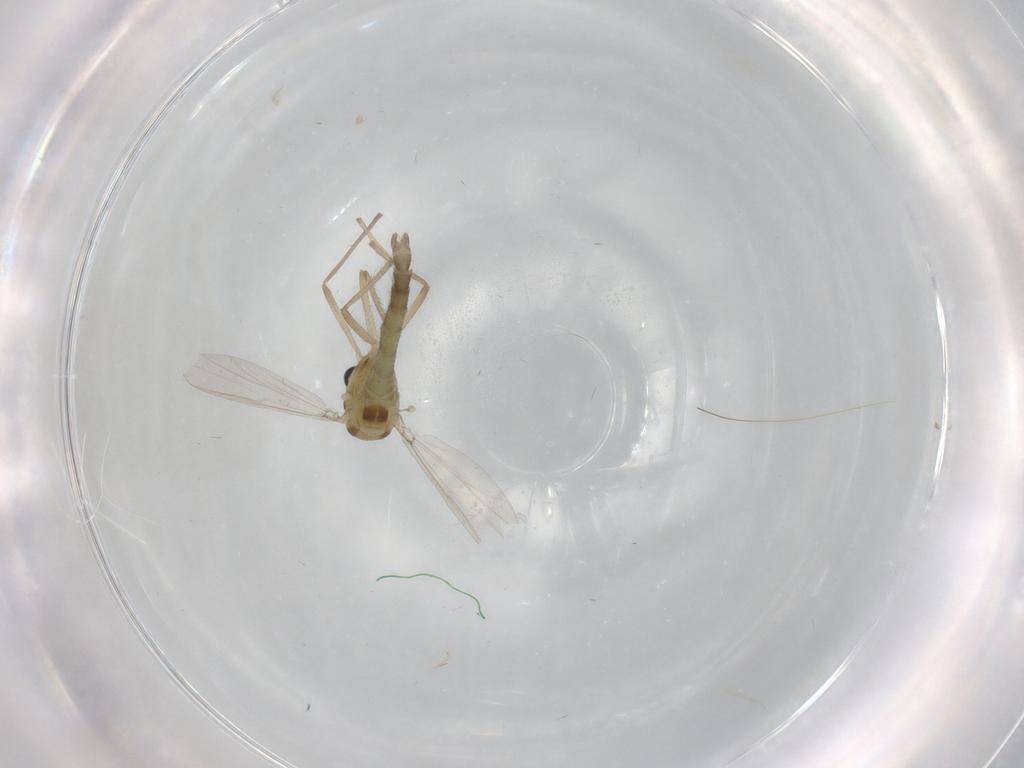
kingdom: Animalia
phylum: Arthropoda
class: Insecta
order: Diptera
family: Chironomidae
